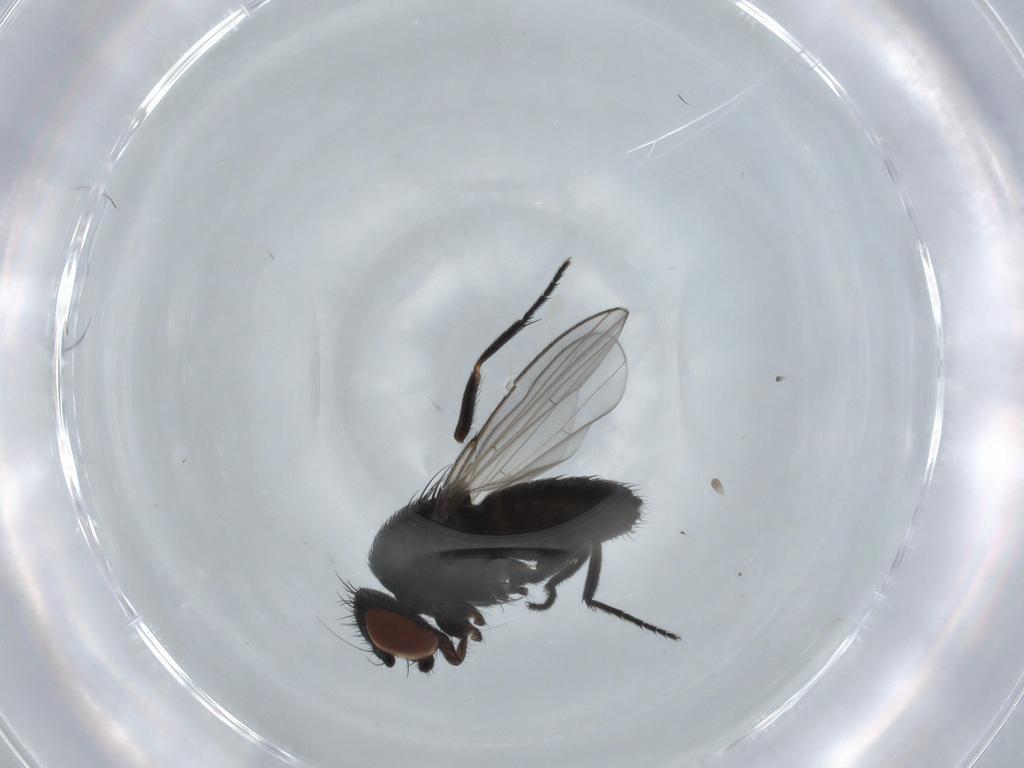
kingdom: Animalia
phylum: Arthropoda
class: Insecta
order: Diptera
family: Milichiidae
